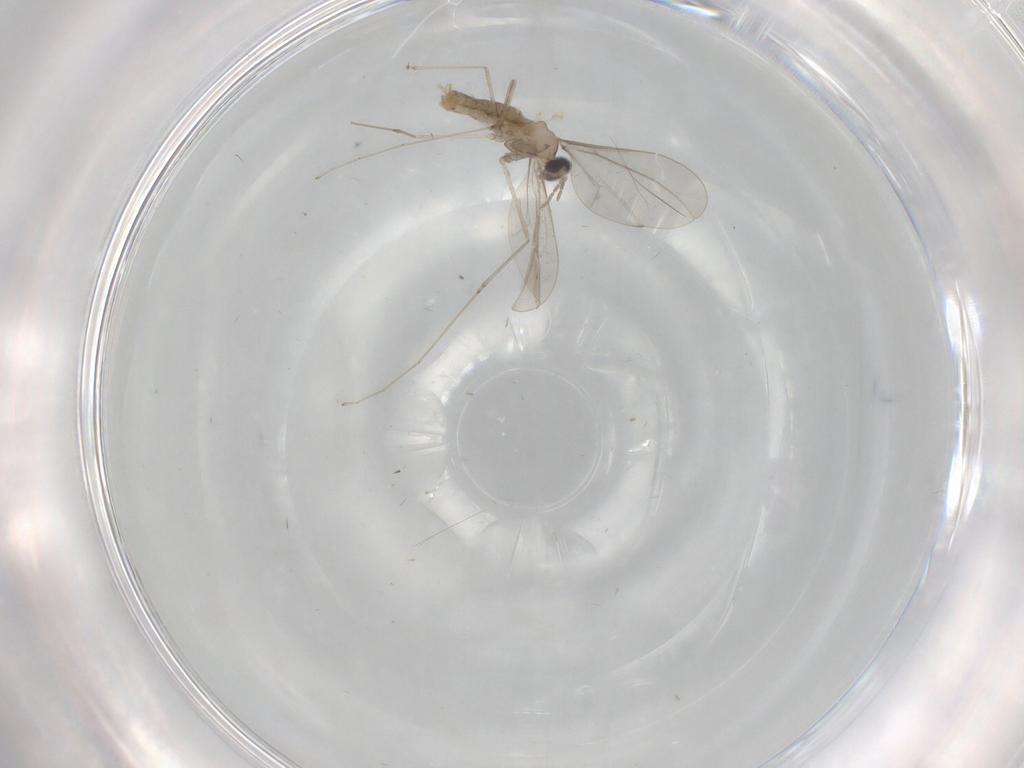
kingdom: Animalia
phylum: Arthropoda
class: Insecta
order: Diptera
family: Cecidomyiidae
